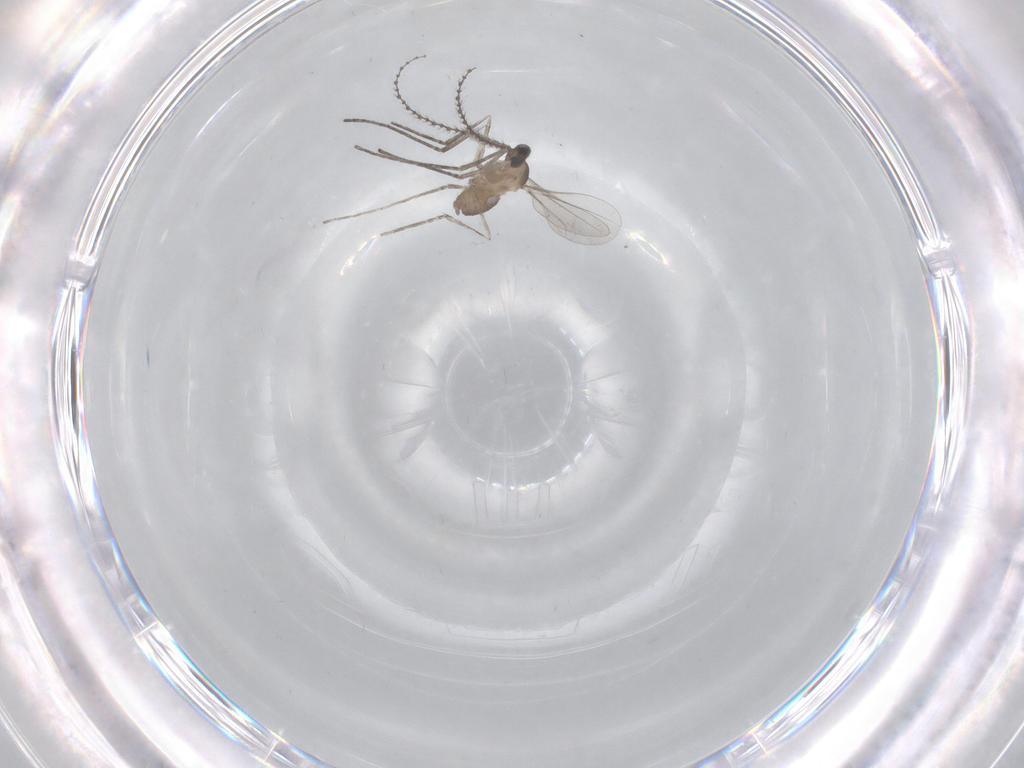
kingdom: Animalia
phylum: Arthropoda
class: Insecta
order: Diptera
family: Cecidomyiidae
